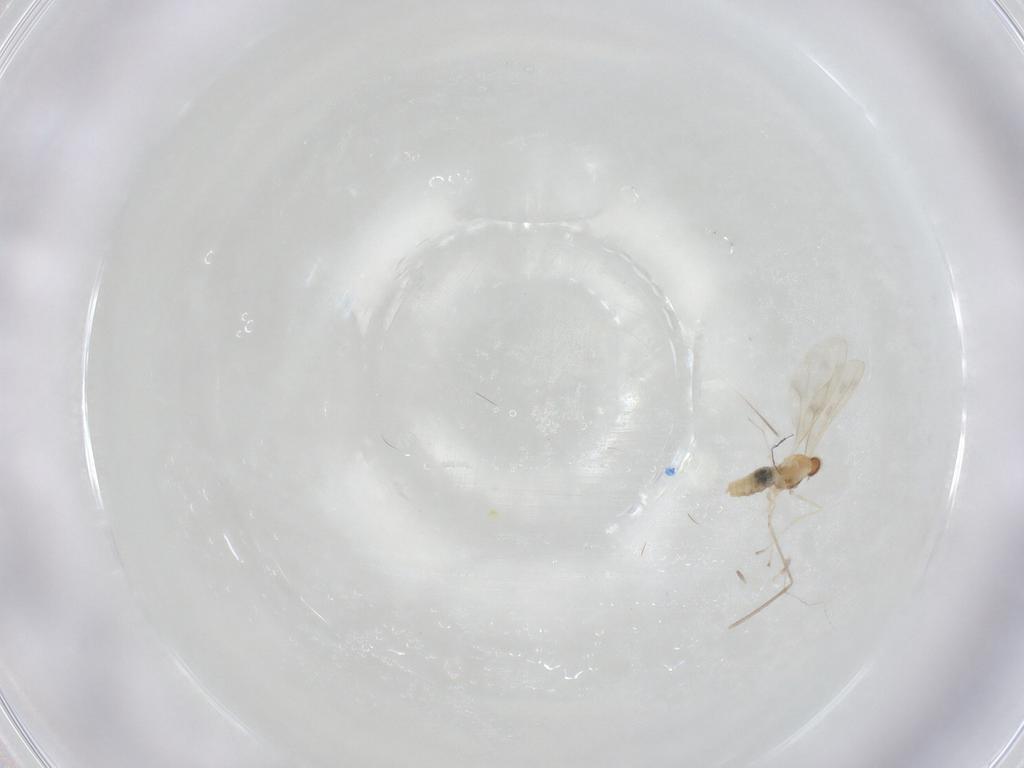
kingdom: Animalia
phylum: Arthropoda
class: Insecta
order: Diptera
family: Cecidomyiidae
